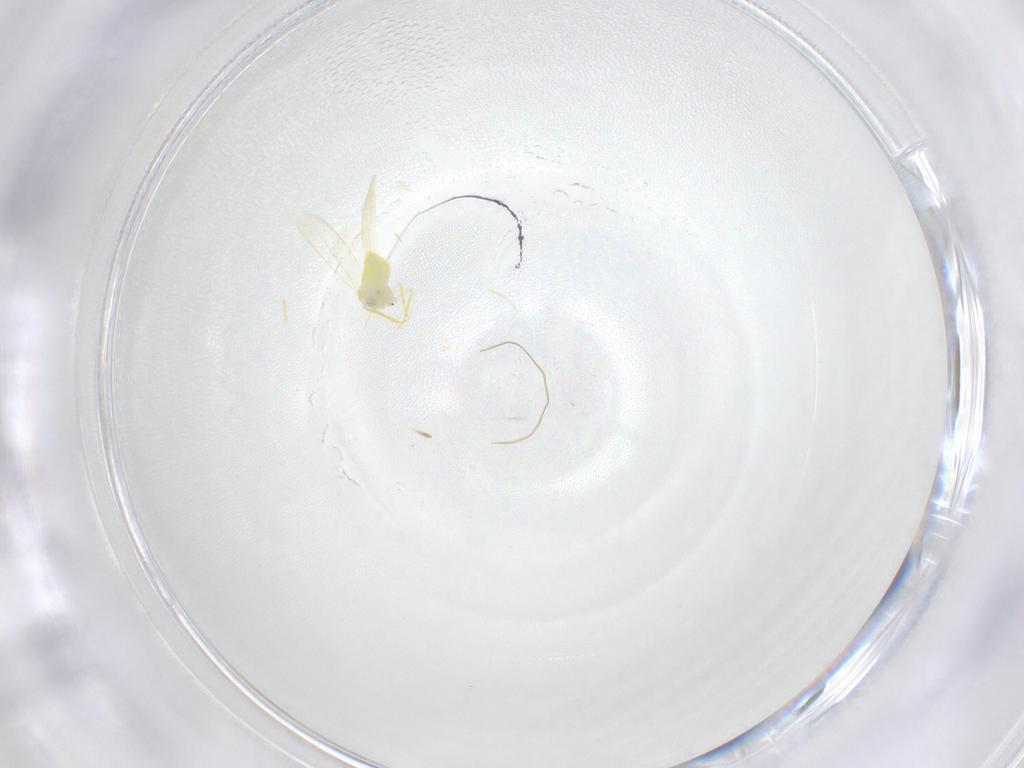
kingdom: Animalia
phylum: Arthropoda
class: Insecta
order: Hemiptera
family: Aleyrodidae
